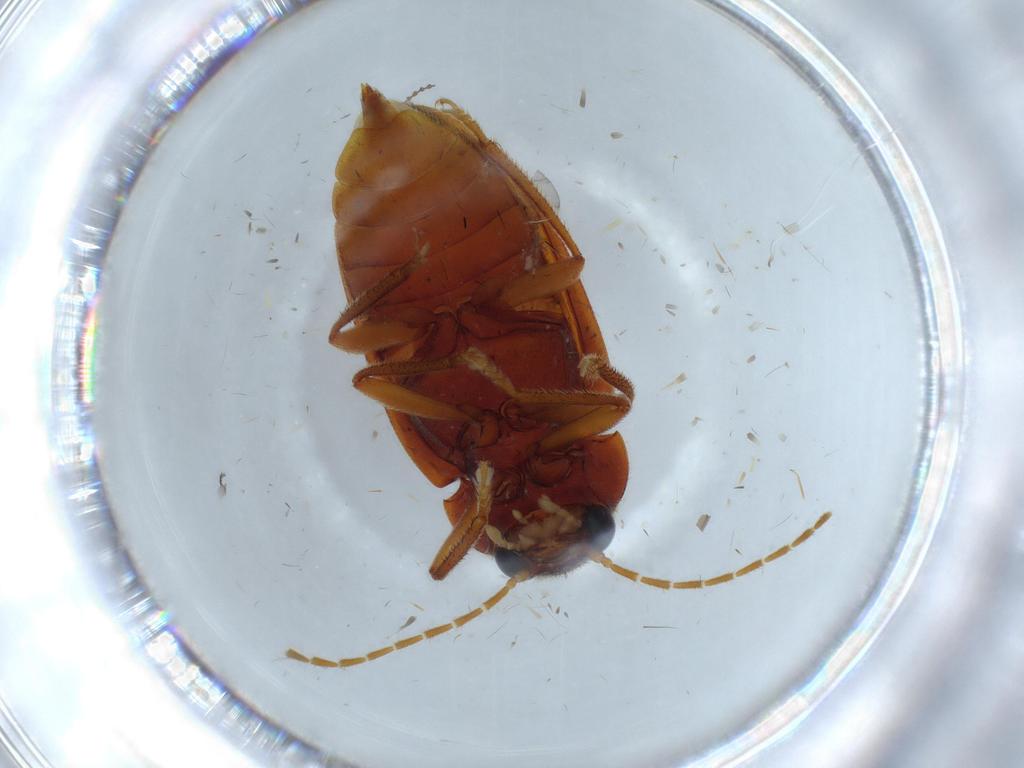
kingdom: Animalia
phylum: Arthropoda
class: Insecta
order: Coleoptera
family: Ptilodactylidae
